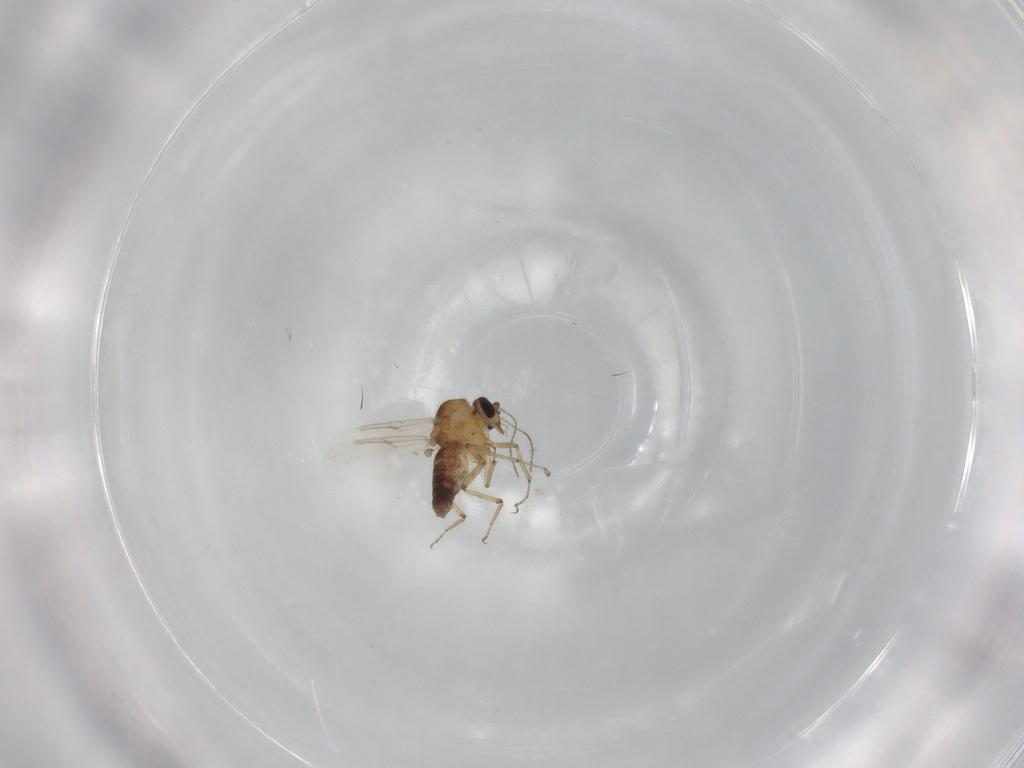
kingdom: Animalia
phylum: Arthropoda
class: Insecta
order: Diptera
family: Ceratopogonidae
